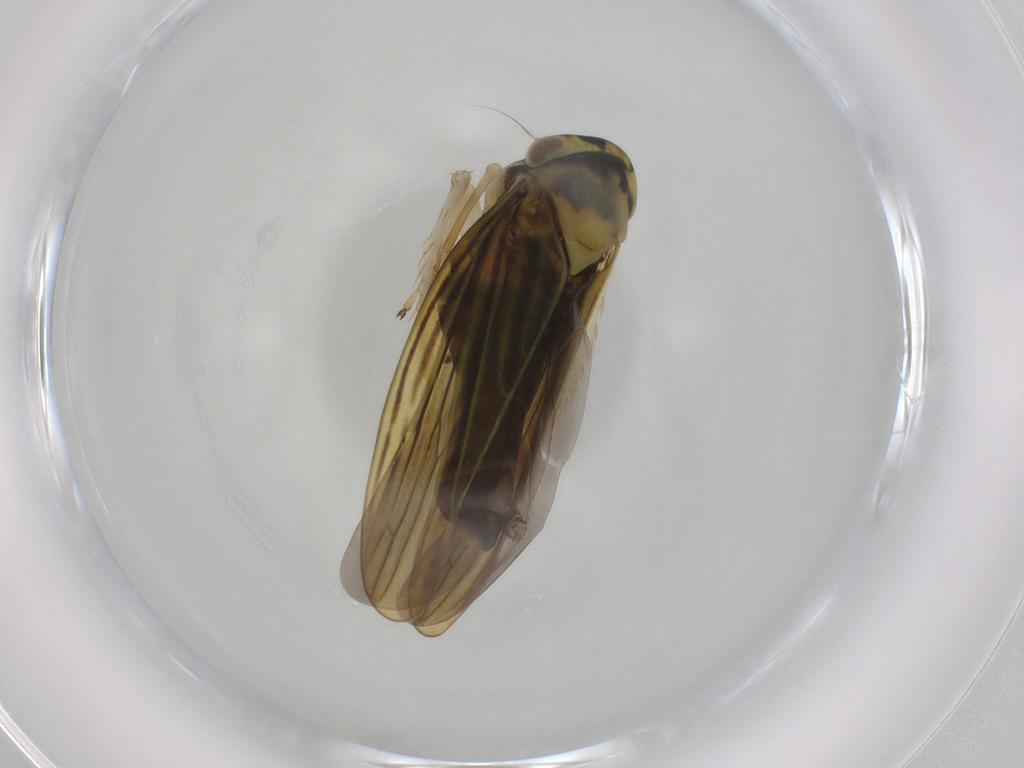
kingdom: Animalia
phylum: Arthropoda
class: Insecta
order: Hemiptera
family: Cicadellidae
